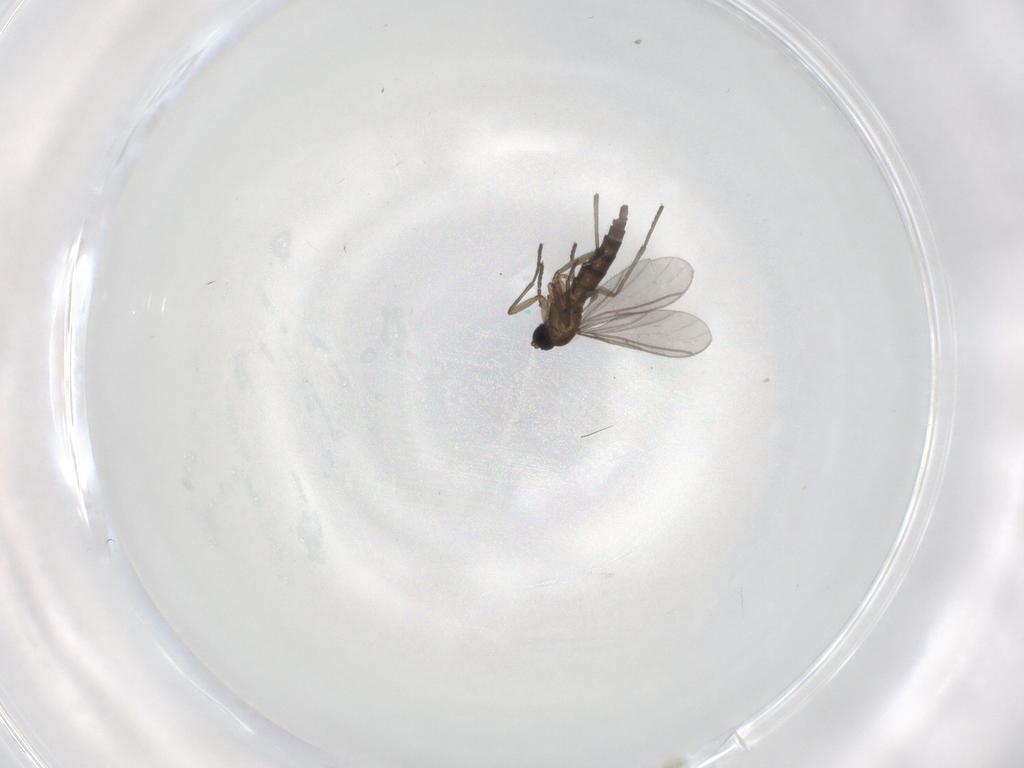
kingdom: Animalia
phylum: Arthropoda
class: Insecta
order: Diptera
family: Sciaridae
